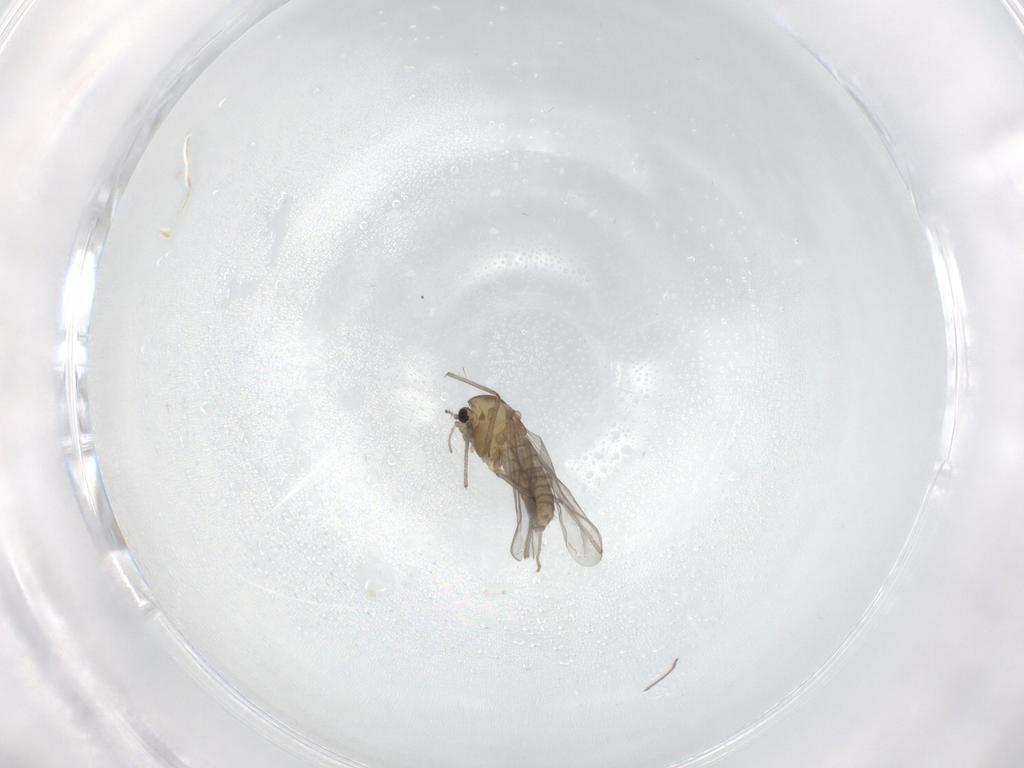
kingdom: Animalia
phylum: Arthropoda
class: Insecta
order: Diptera
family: Chironomidae
